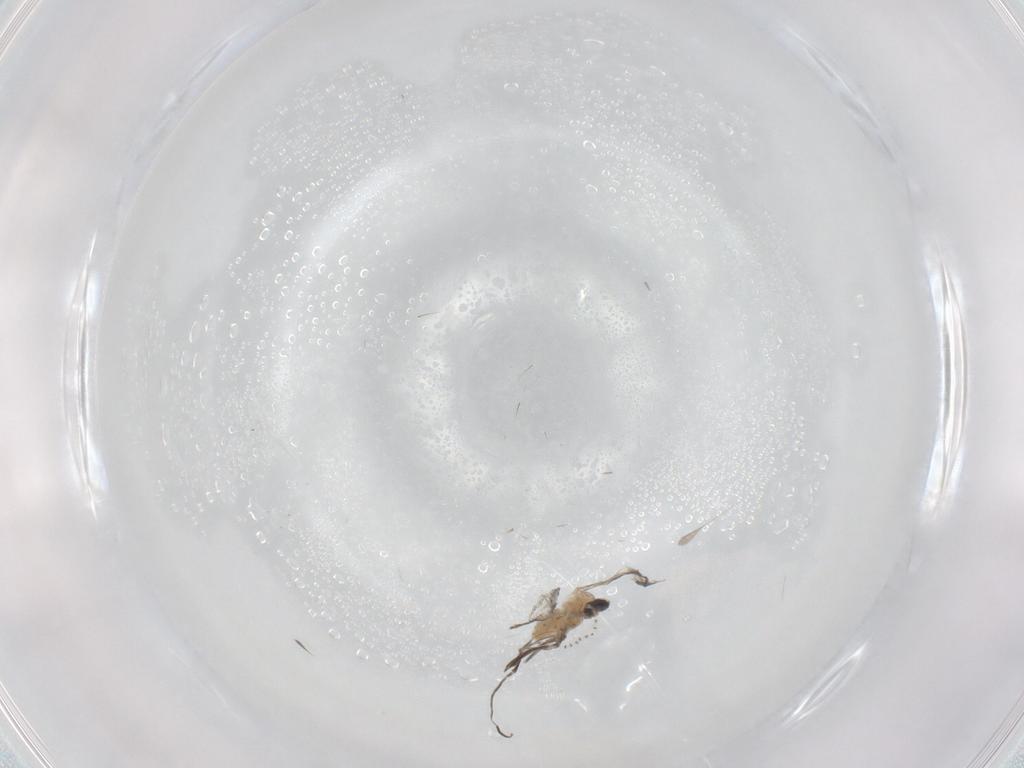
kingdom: Animalia
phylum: Arthropoda
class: Insecta
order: Diptera
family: Cecidomyiidae
